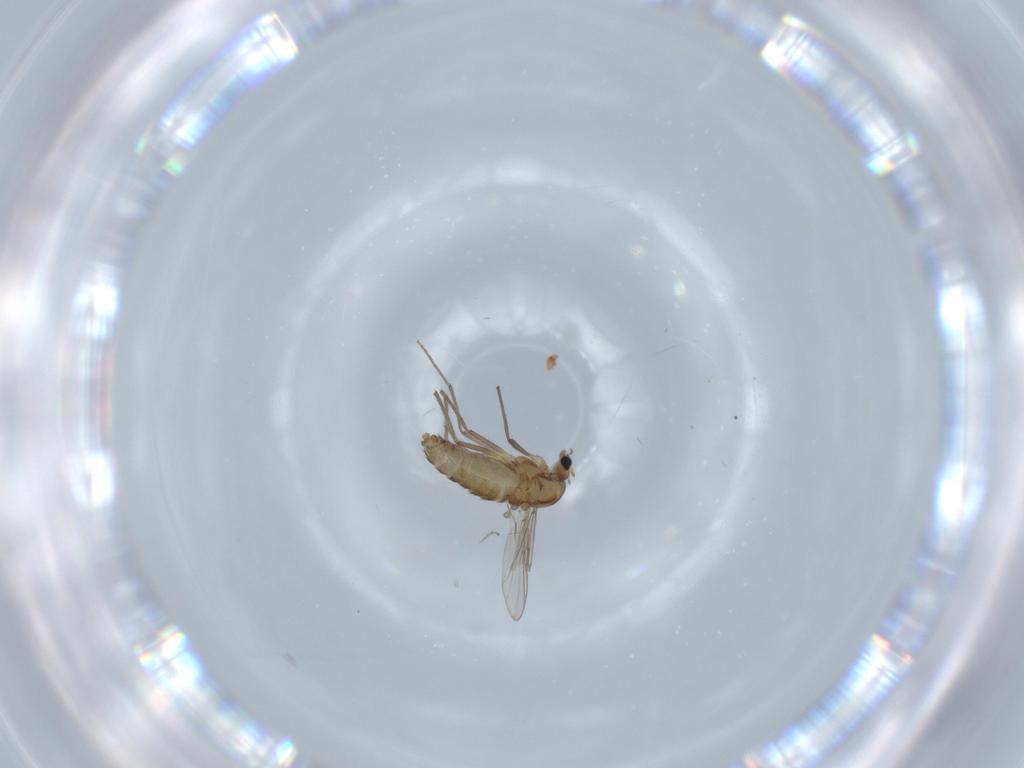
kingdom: Animalia
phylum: Arthropoda
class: Insecta
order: Diptera
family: Chironomidae
